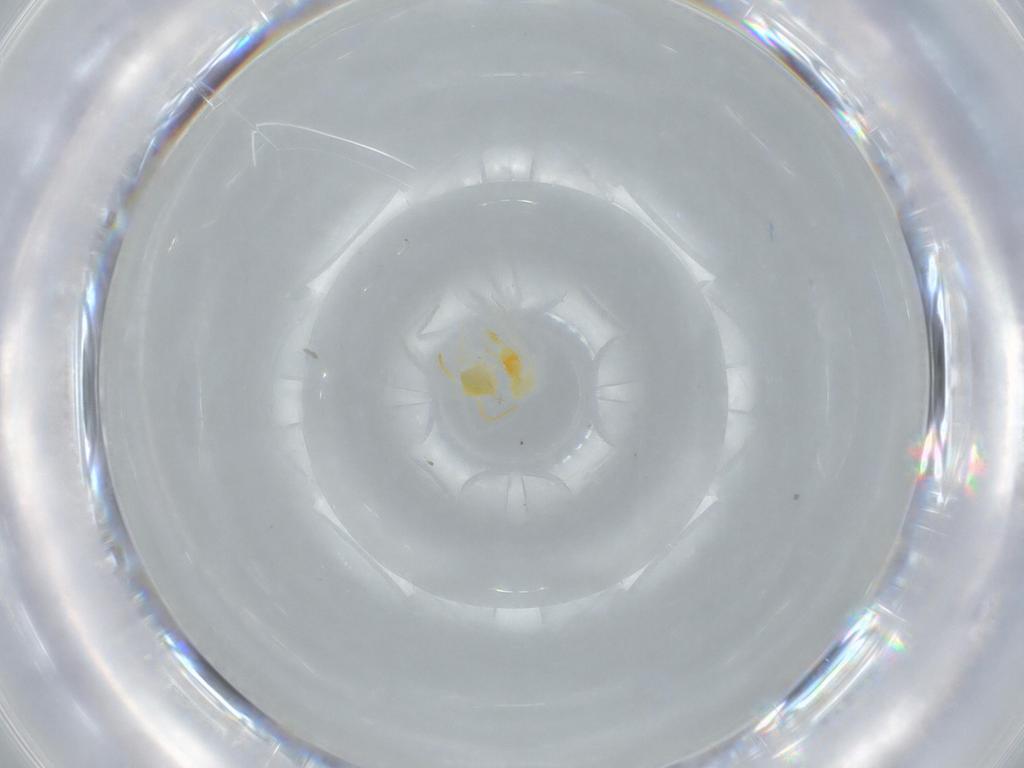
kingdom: Animalia
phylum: Arthropoda
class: Insecta
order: Hemiptera
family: Aleyrodidae
